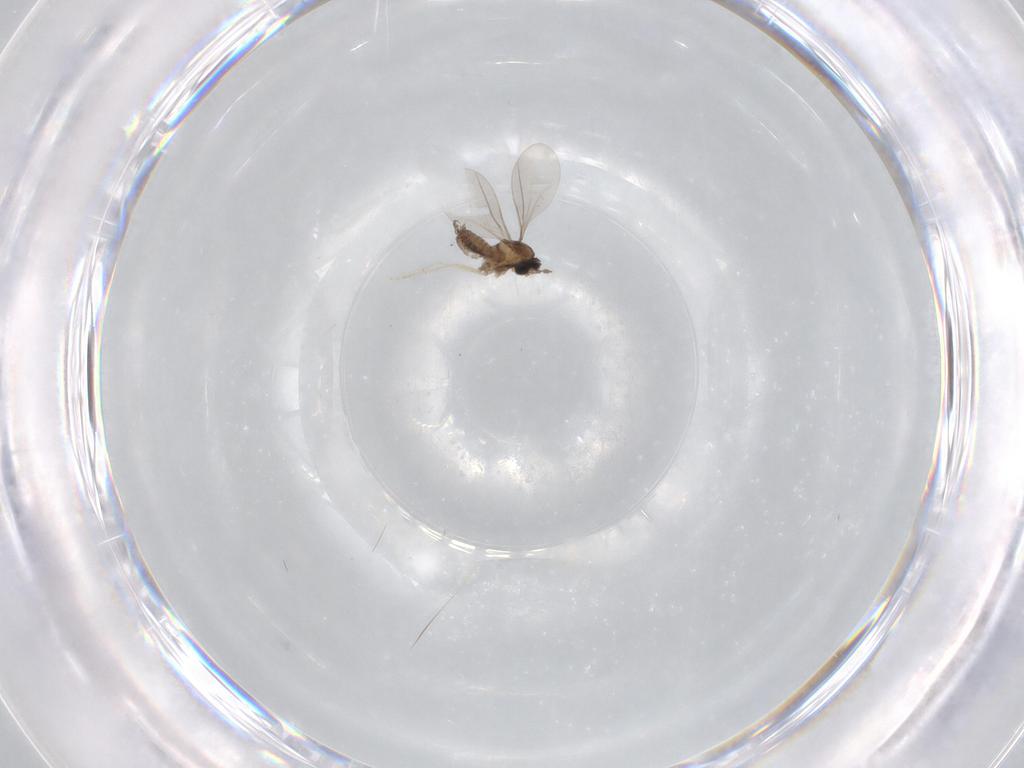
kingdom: Animalia
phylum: Arthropoda
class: Insecta
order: Diptera
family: Cecidomyiidae
